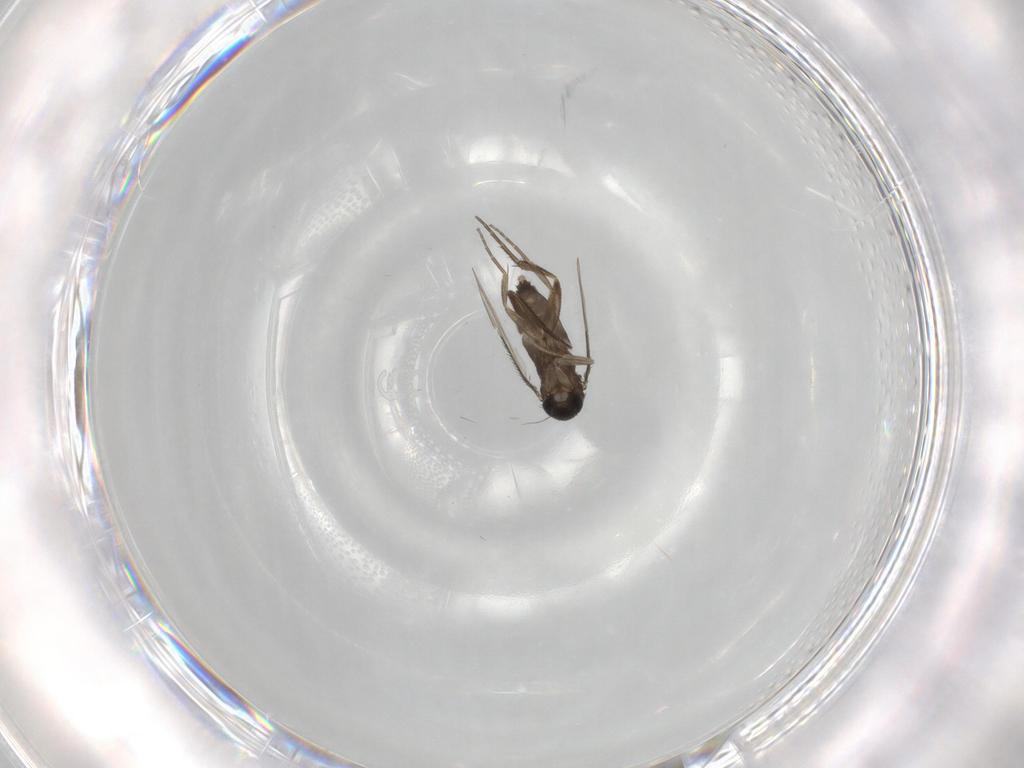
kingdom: Animalia
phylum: Arthropoda
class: Insecta
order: Diptera
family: Phoridae
